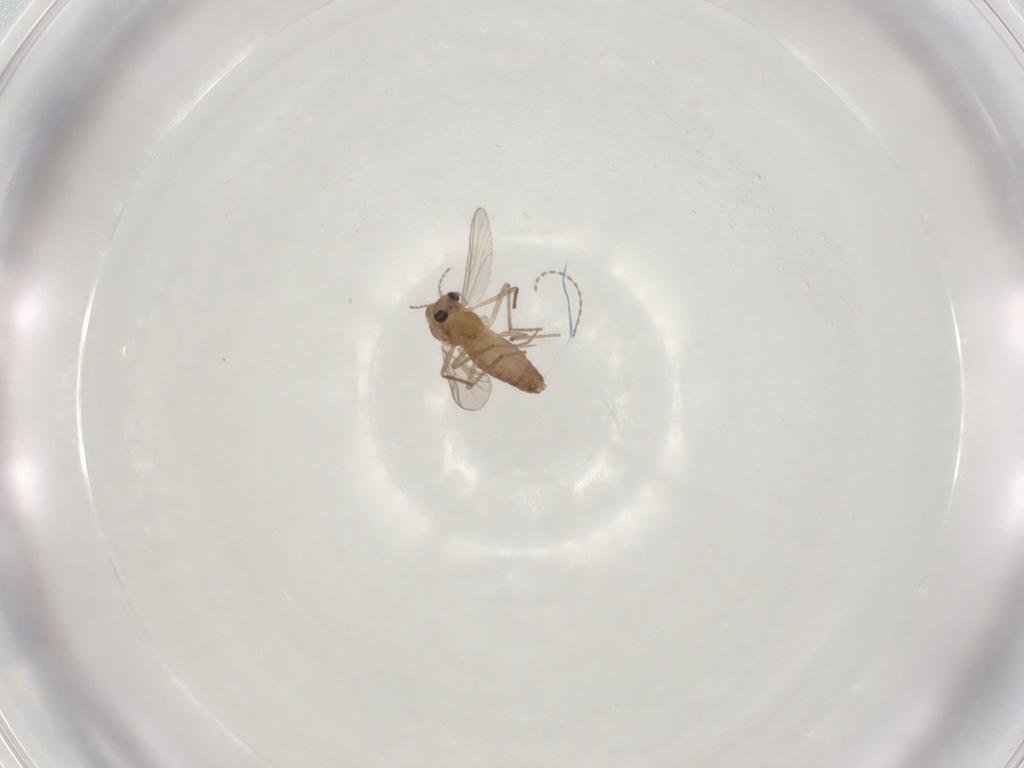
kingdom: Animalia
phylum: Arthropoda
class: Insecta
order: Diptera
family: Chironomidae
